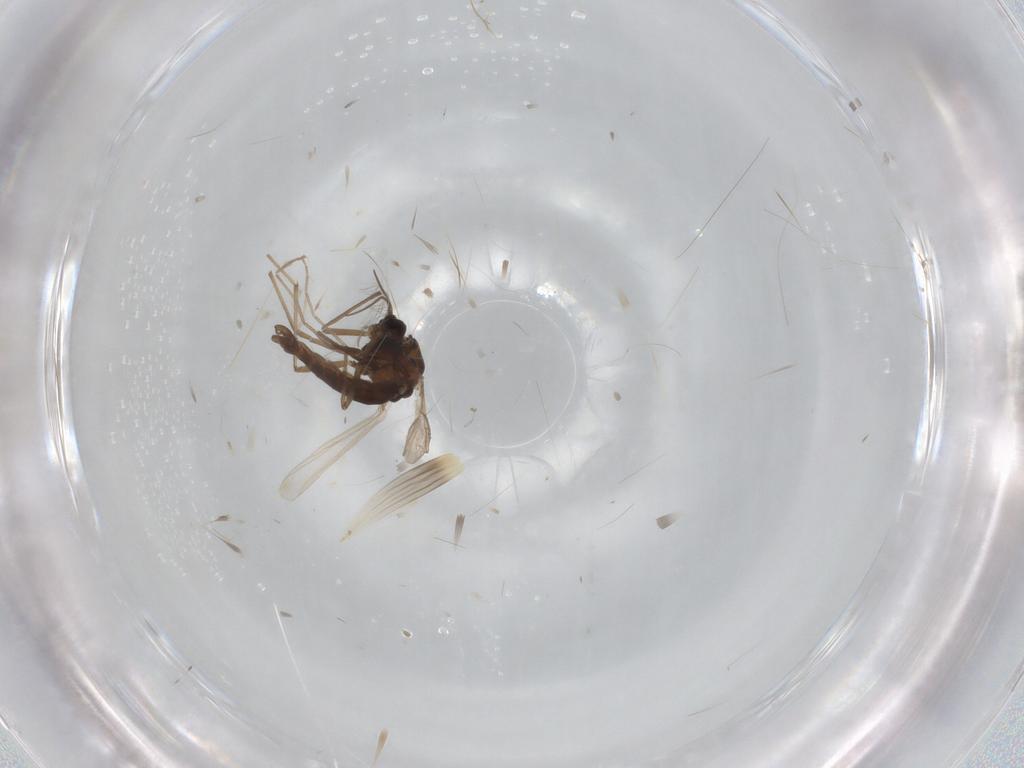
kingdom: Animalia
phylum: Arthropoda
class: Insecta
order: Diptera
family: Chironomidae
